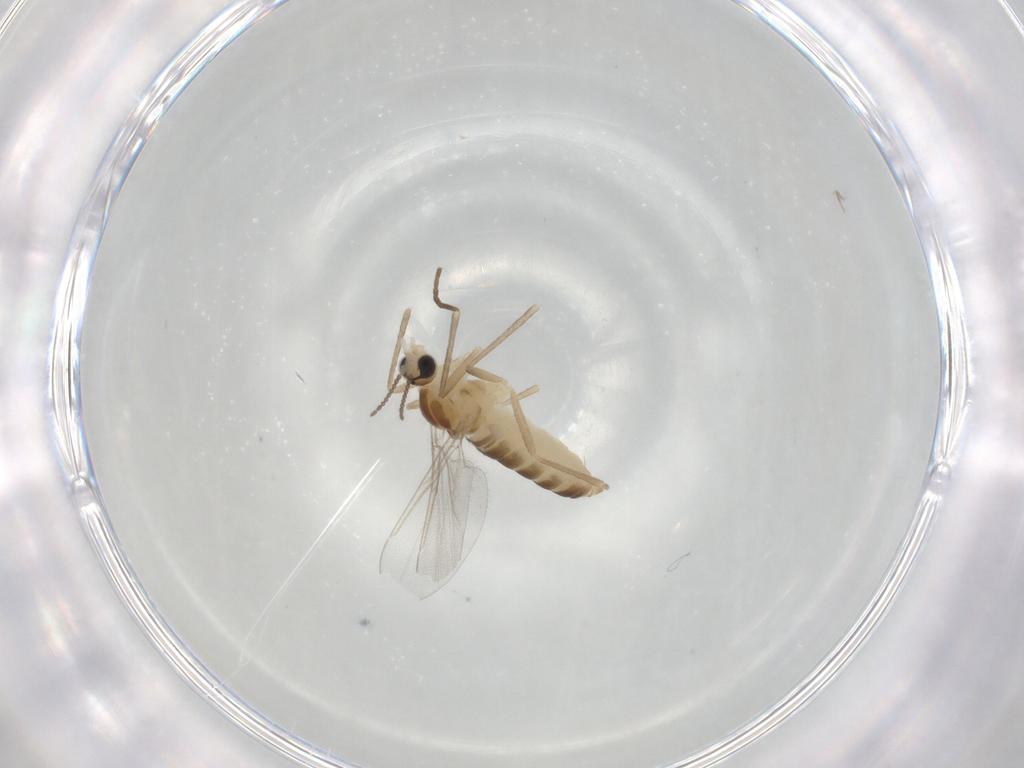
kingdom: Animalia
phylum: Arthropoda
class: Insecta
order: Diptera
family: Cecidomyiidae
